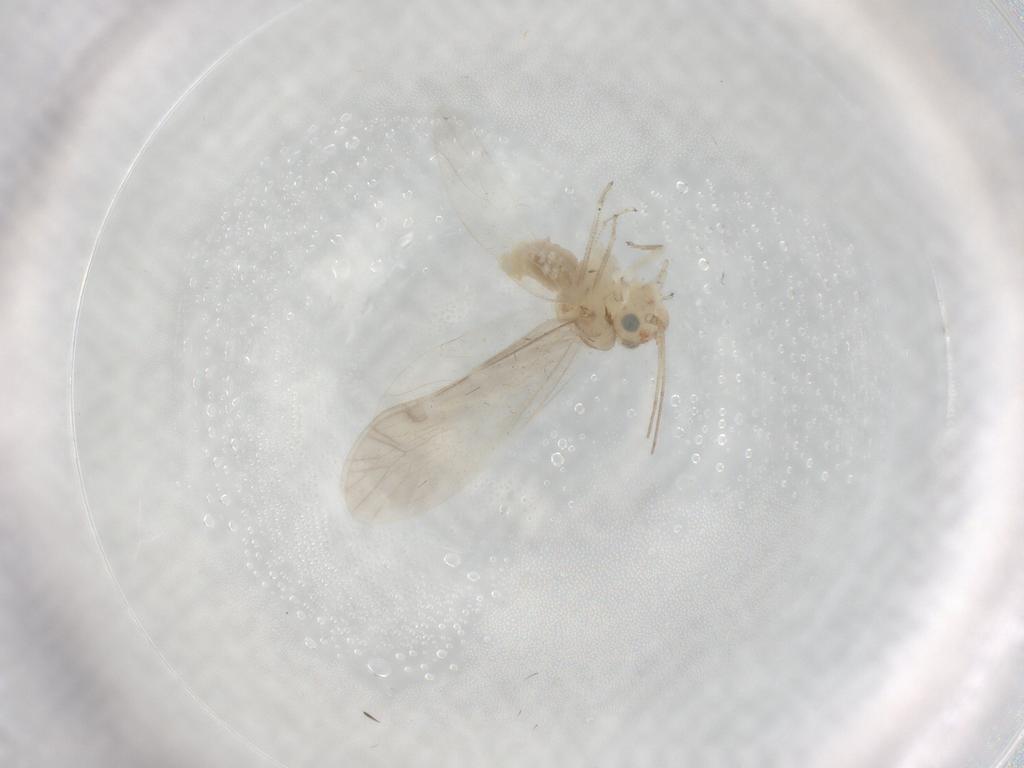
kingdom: Animalia
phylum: Arthropoda
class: Insecta
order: Psocodea
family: Caeciliusidae
